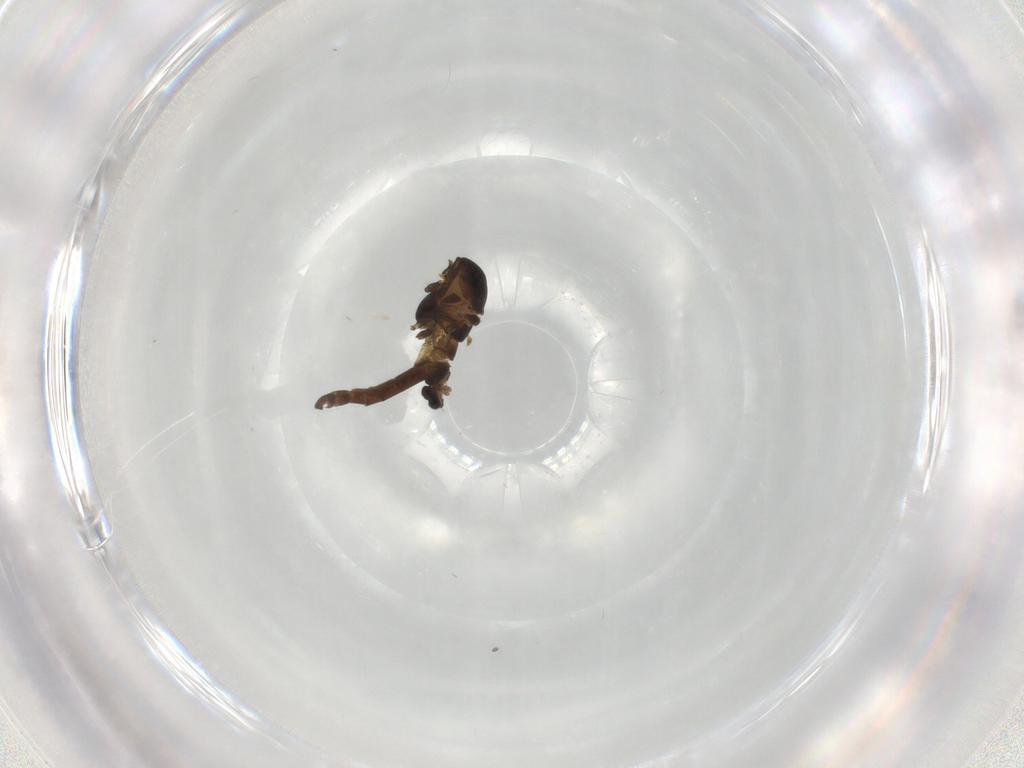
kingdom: Animalia
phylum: Arthropoda
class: Insecta
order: Diptera
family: Chironomidae
